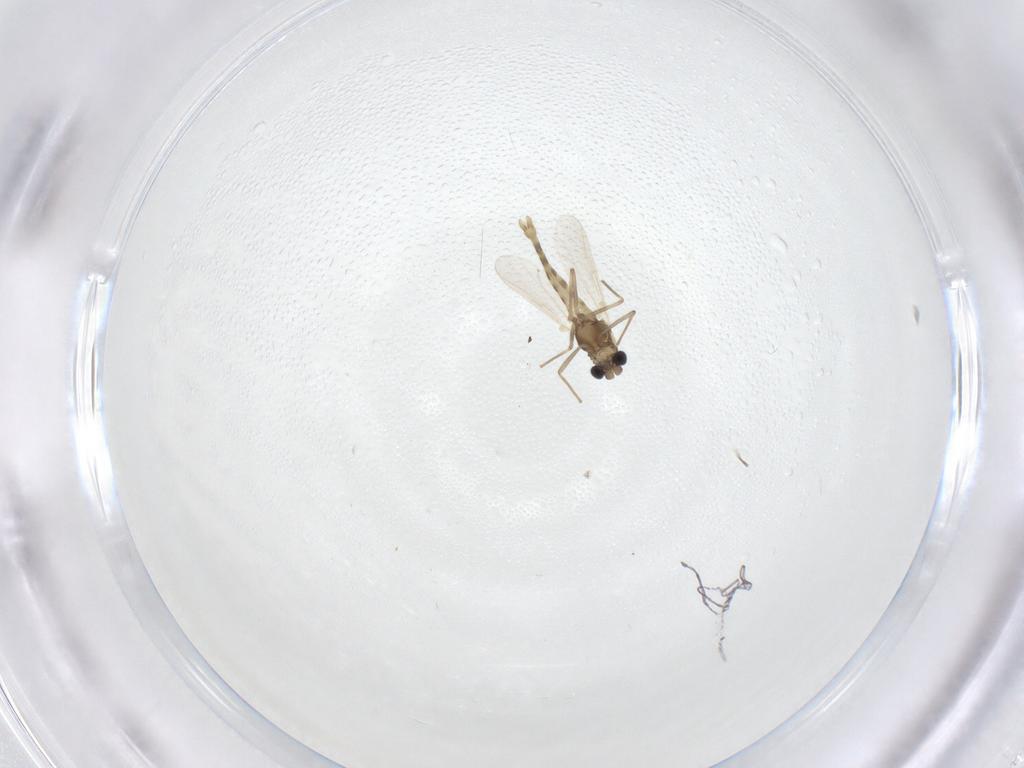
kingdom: Animalia
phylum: Arthropoda
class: Insecta
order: Diptera
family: Chironomidae
